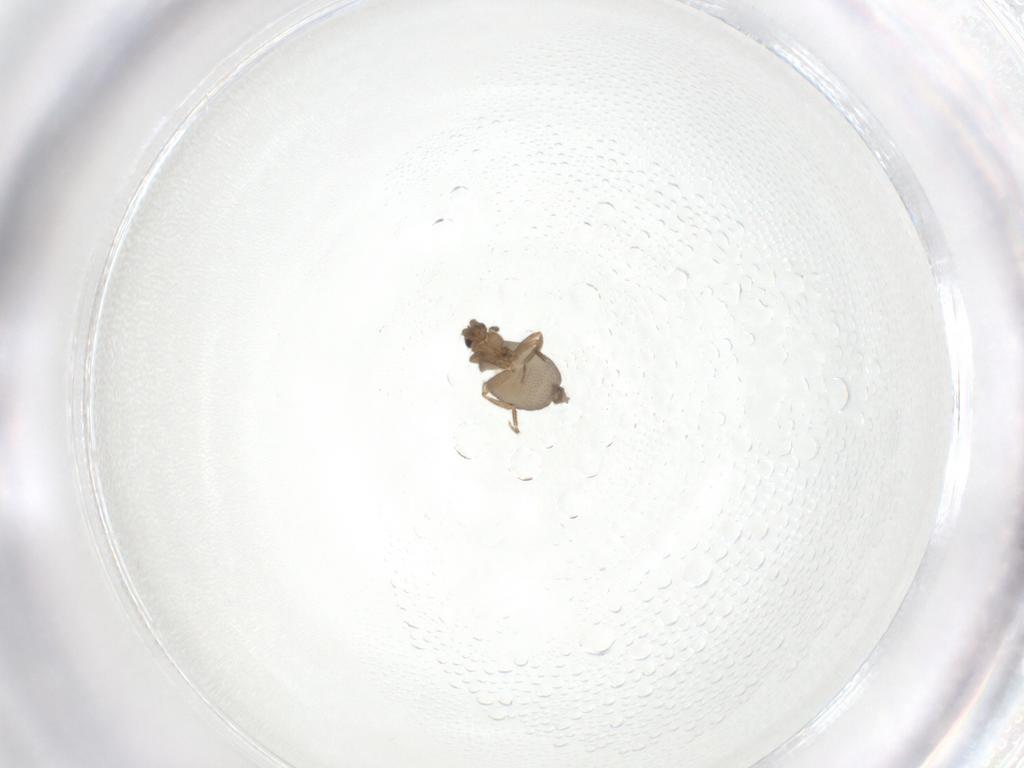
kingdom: Animalia
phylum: Arthropoda
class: Insecta
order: Diptera
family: Phoridae
